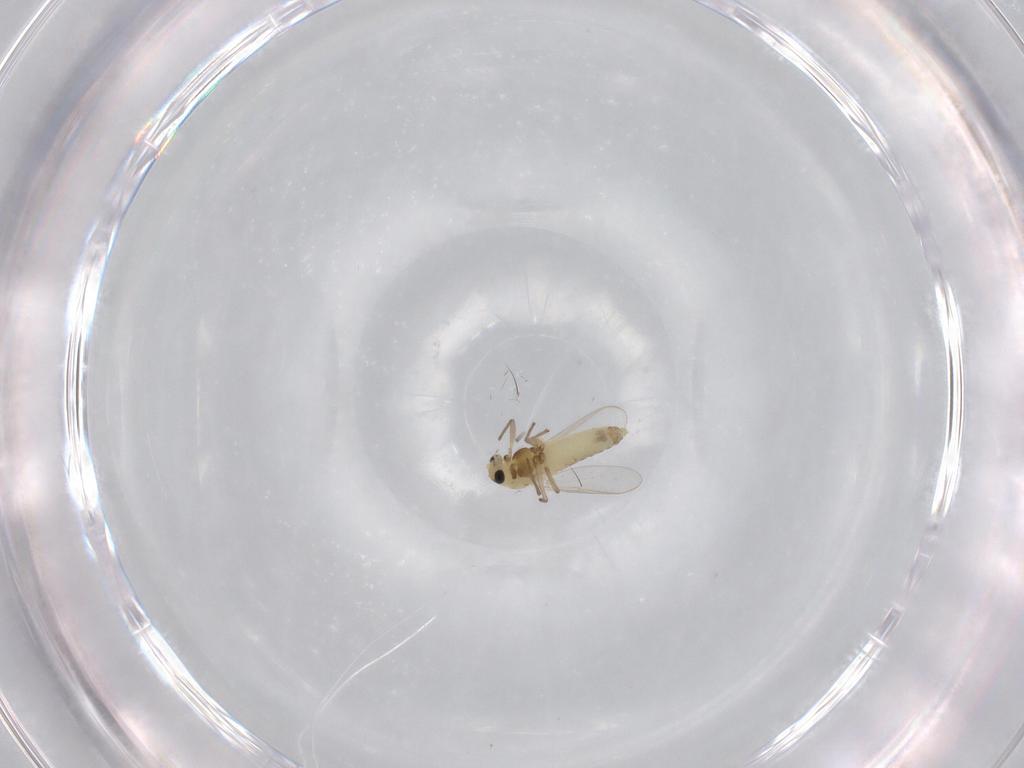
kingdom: Animalia
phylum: Arthropoda
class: Insecta
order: Diptera
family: Chironomidae
